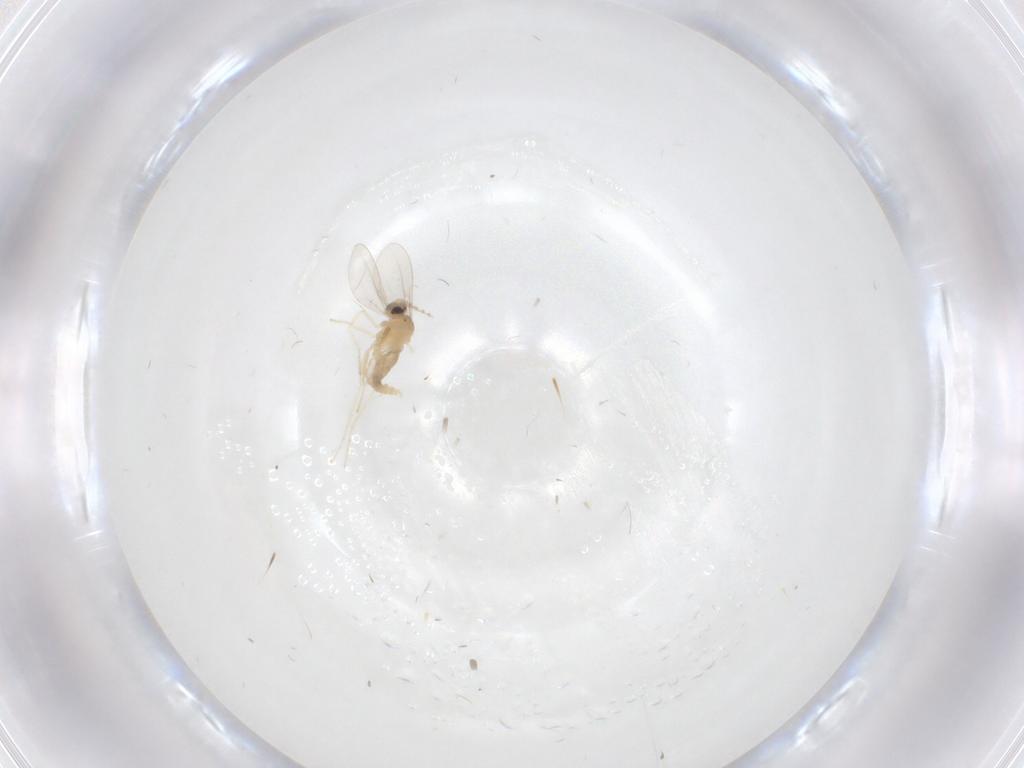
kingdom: Animalia
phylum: Arthropoda
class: Insecta
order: Diptera
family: Cecidomyiidae
